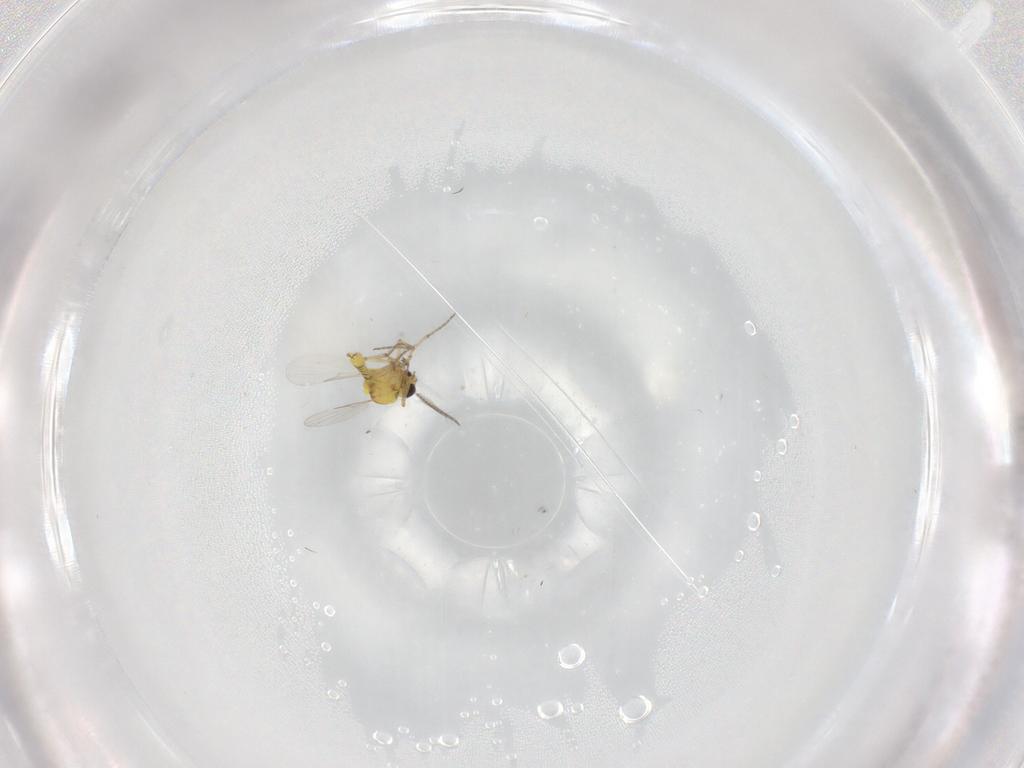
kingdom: Animalia
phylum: Arthropoda
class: Insecta
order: Diptera
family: Ceratopogonidae
